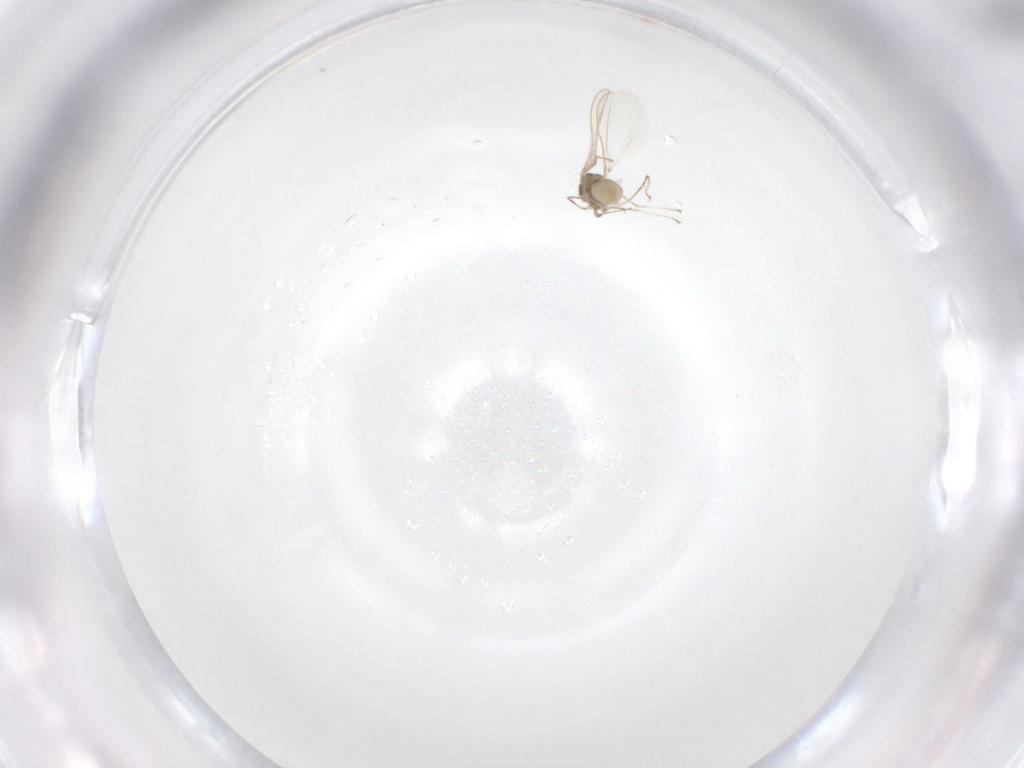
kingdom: Animalia
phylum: Arthropoda
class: Insecta
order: Diptera
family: Cecidomyiidae
